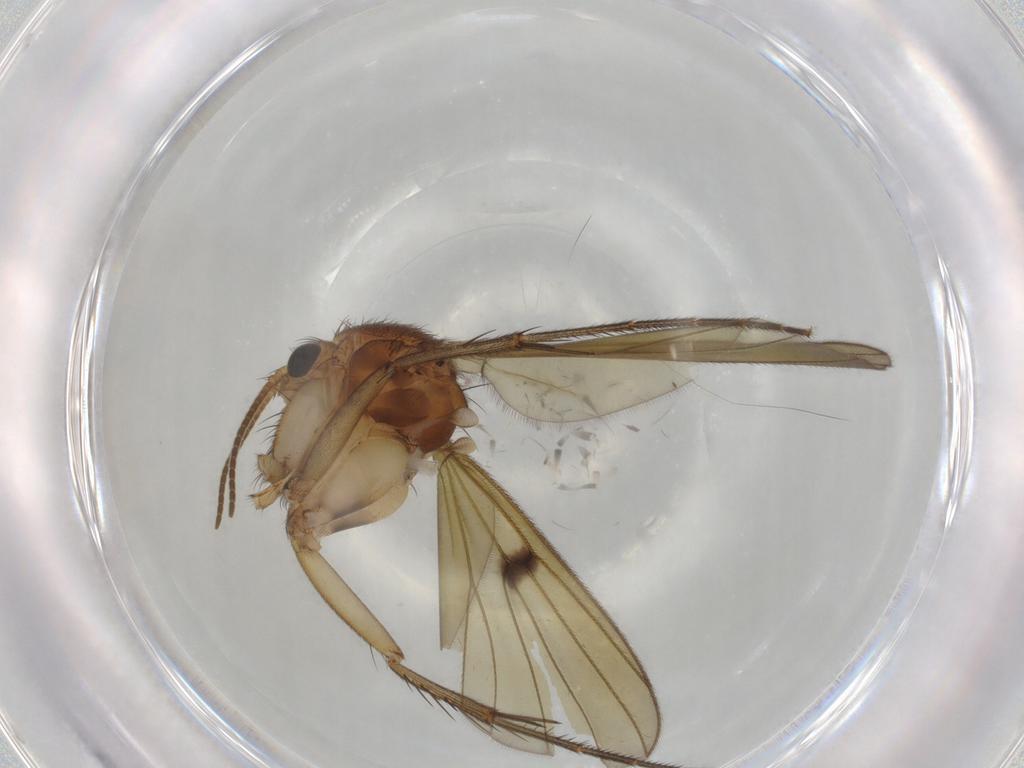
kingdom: Animalia
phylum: Arthropoda
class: Insecta
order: Diptera
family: Mycetophilidae
